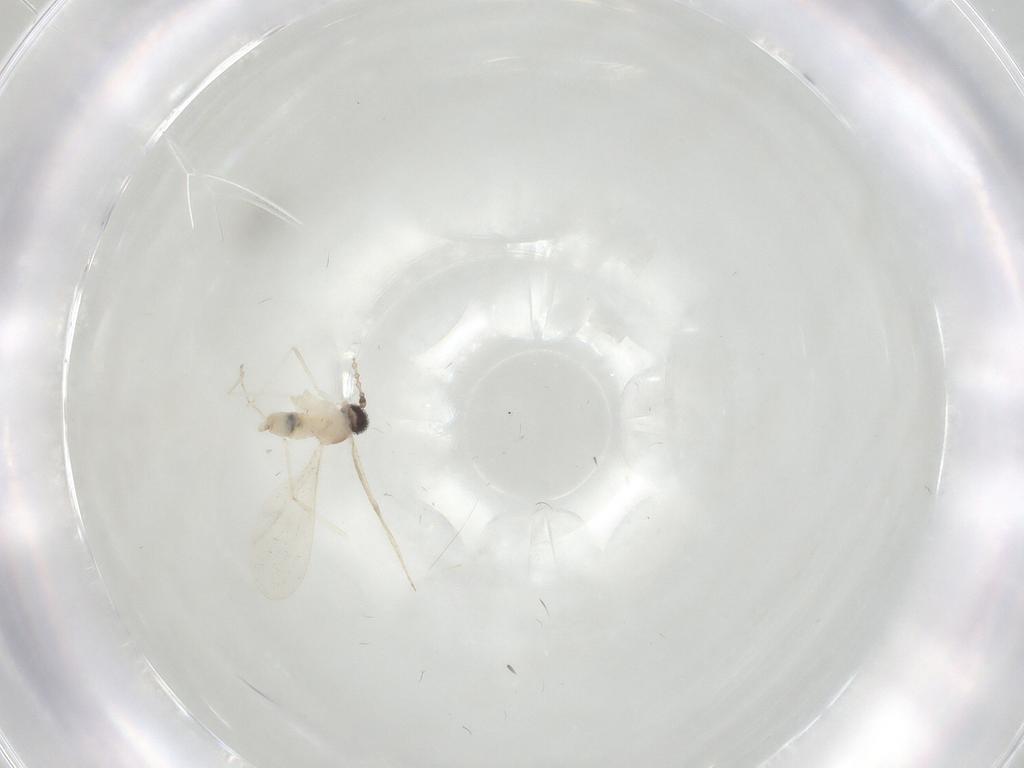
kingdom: Animalia
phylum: Arthropoda
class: Insecta
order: Diptera
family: Cecidomyiidae
